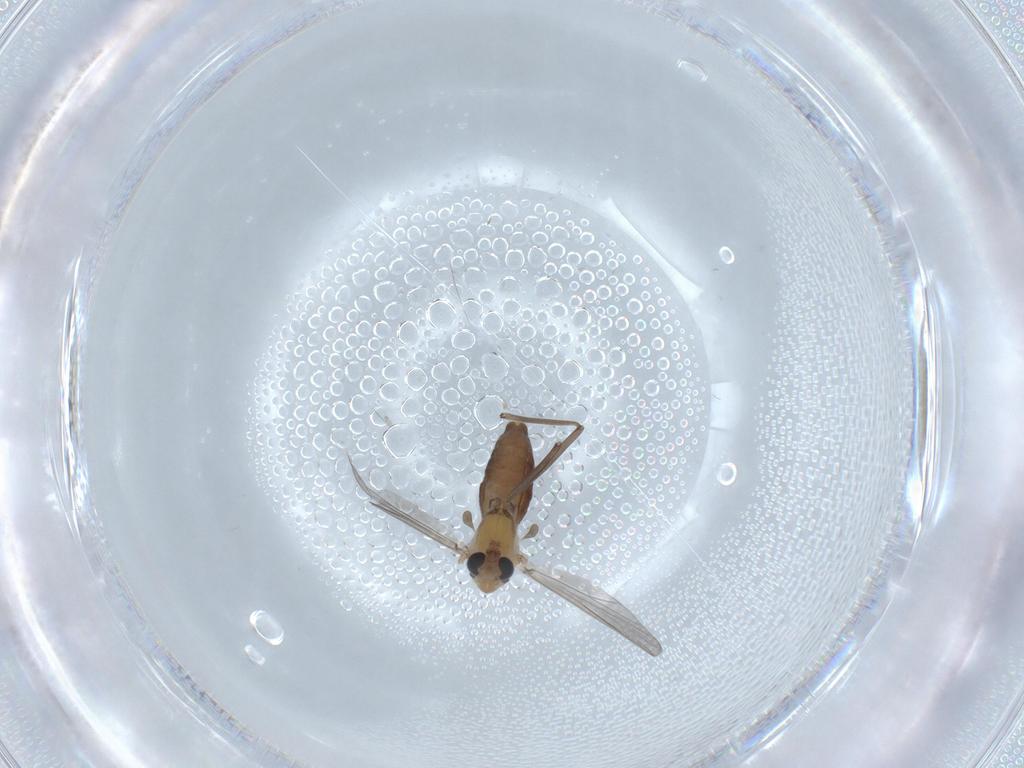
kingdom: Animalia
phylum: Arthropoda
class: Insecta
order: Diptera
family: Chironomidae
